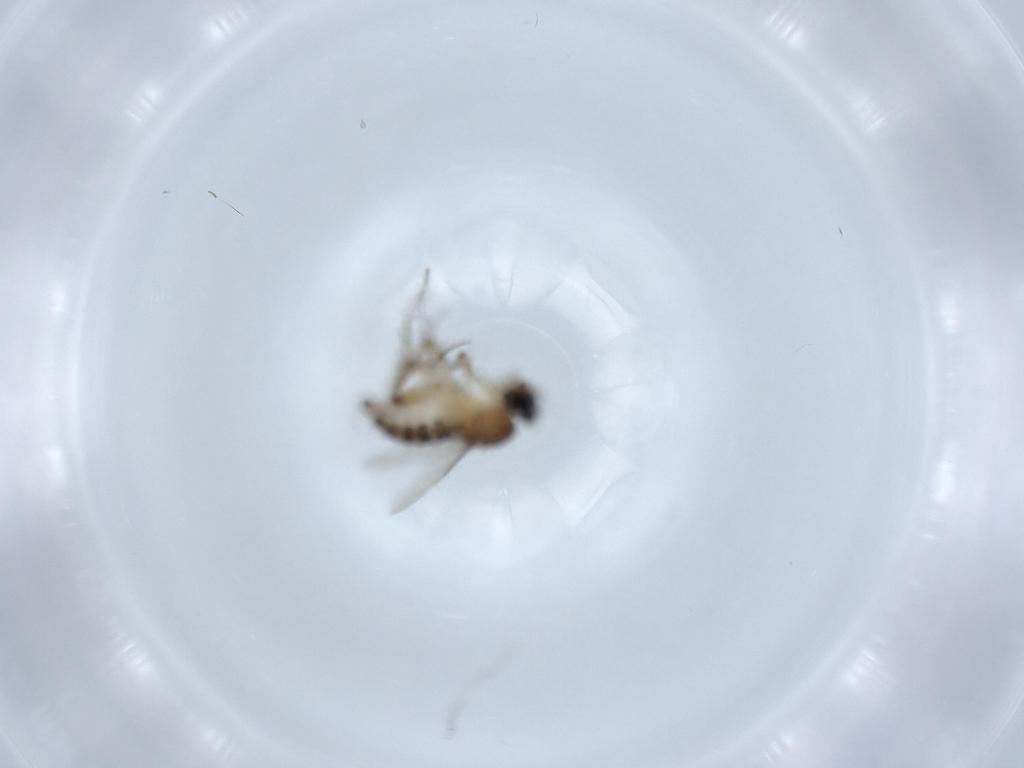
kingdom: Animalia
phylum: Arthropoda
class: Insecta
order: Diptera
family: Phoridae
